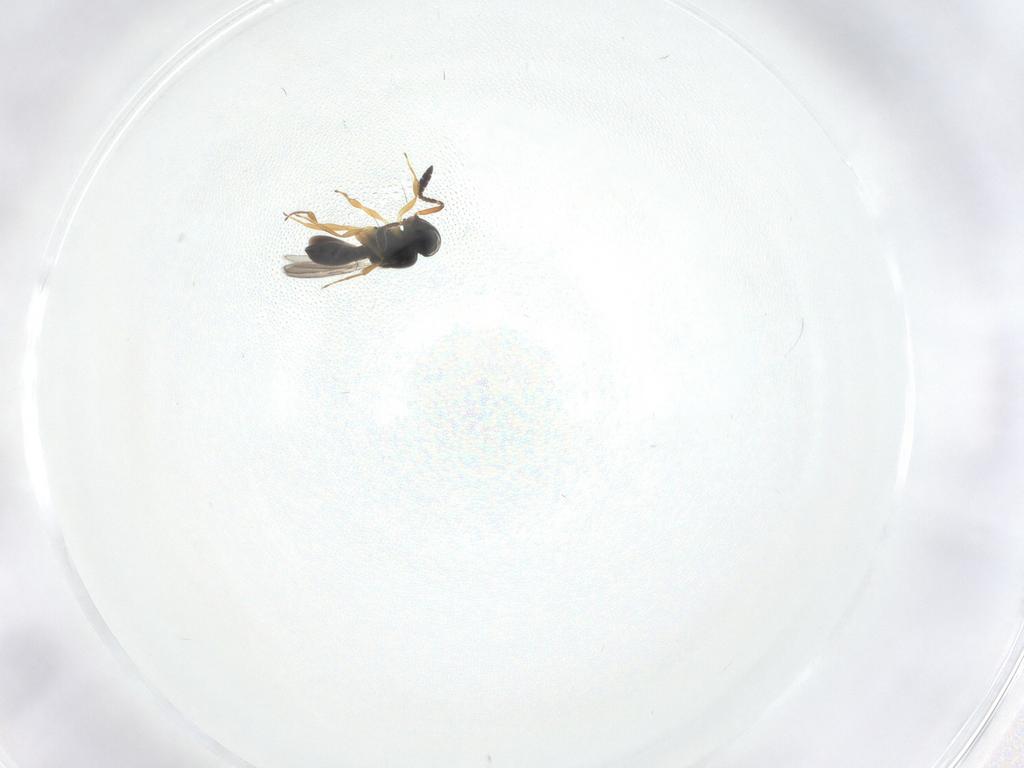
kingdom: Animalia
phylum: Arthropoda
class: Insecta
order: Hymenoptera
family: Scelionidae
